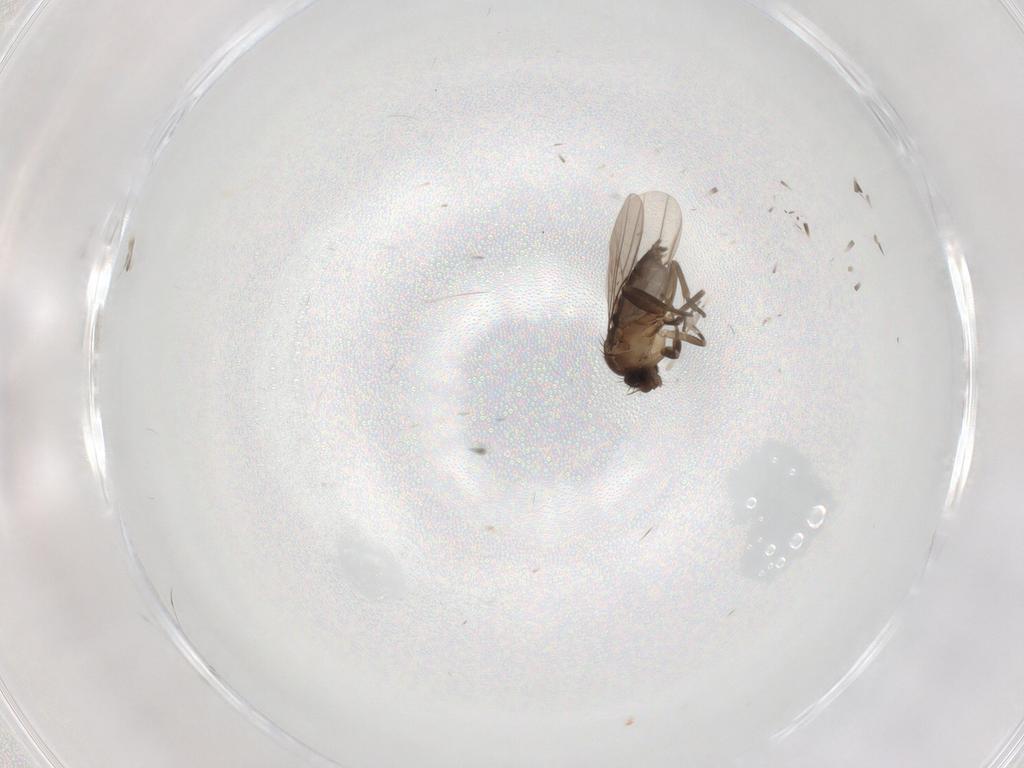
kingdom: Animalia
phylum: Arthropoda
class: Insecta
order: Diptera
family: Phoridae
